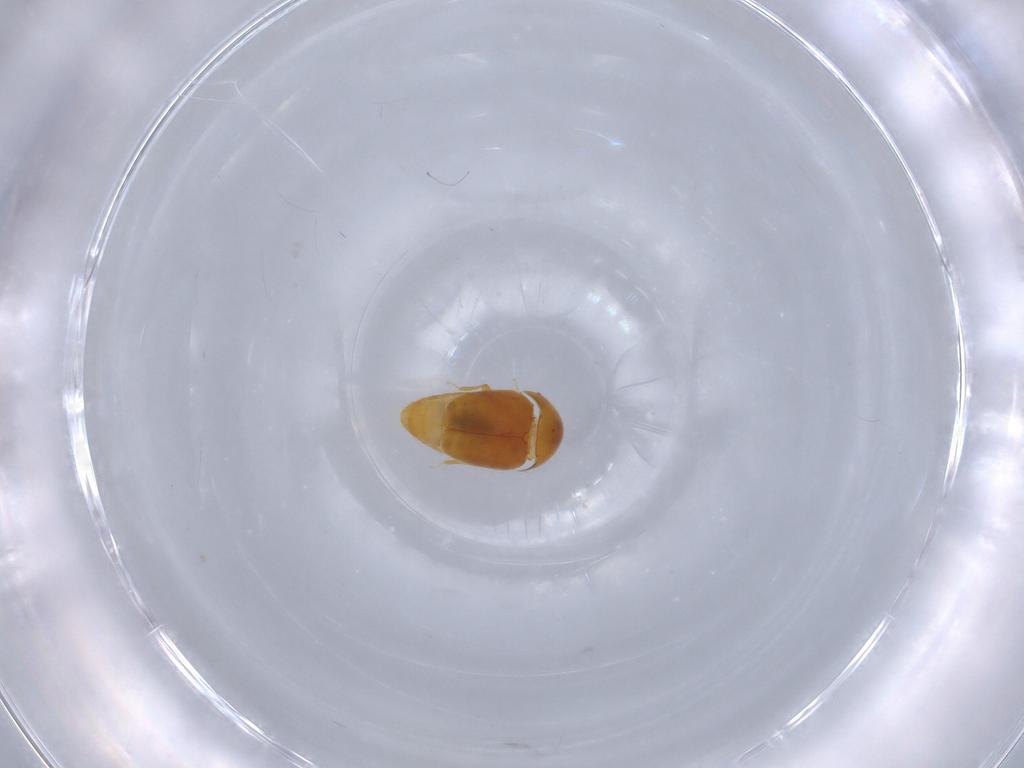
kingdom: Animalia
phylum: Arthropoda
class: Insecta
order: Coleoptera
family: Corylophidae
